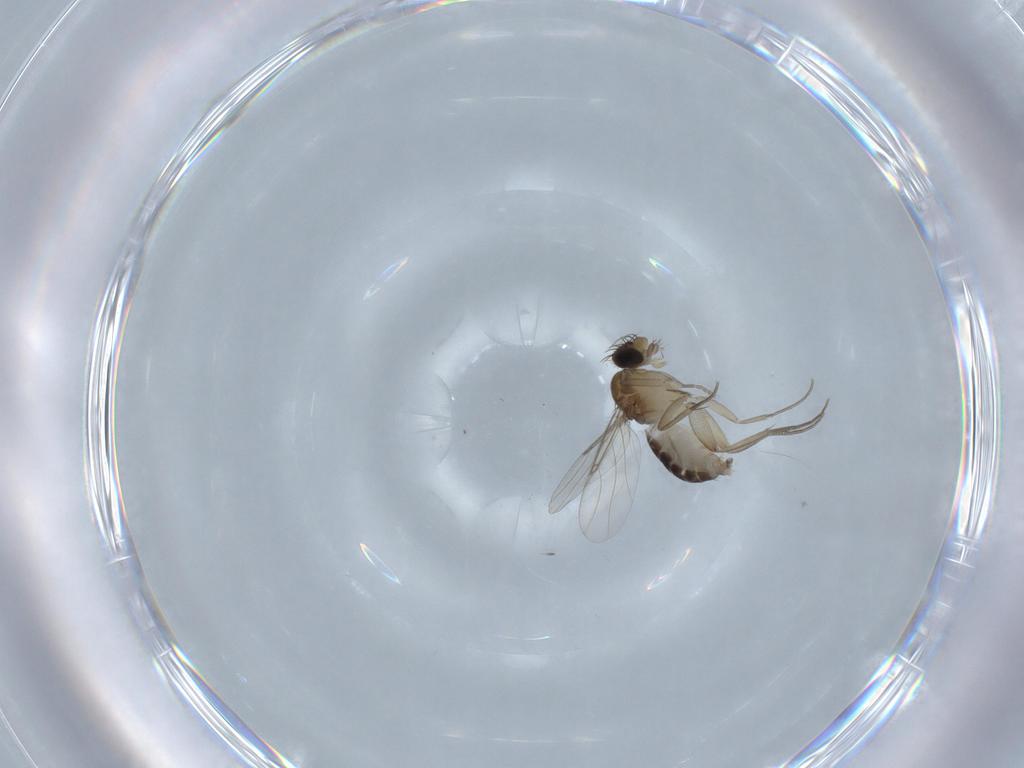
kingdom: Animalia
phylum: Arthropoda
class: Insecta
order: Diptera
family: Phoridae
